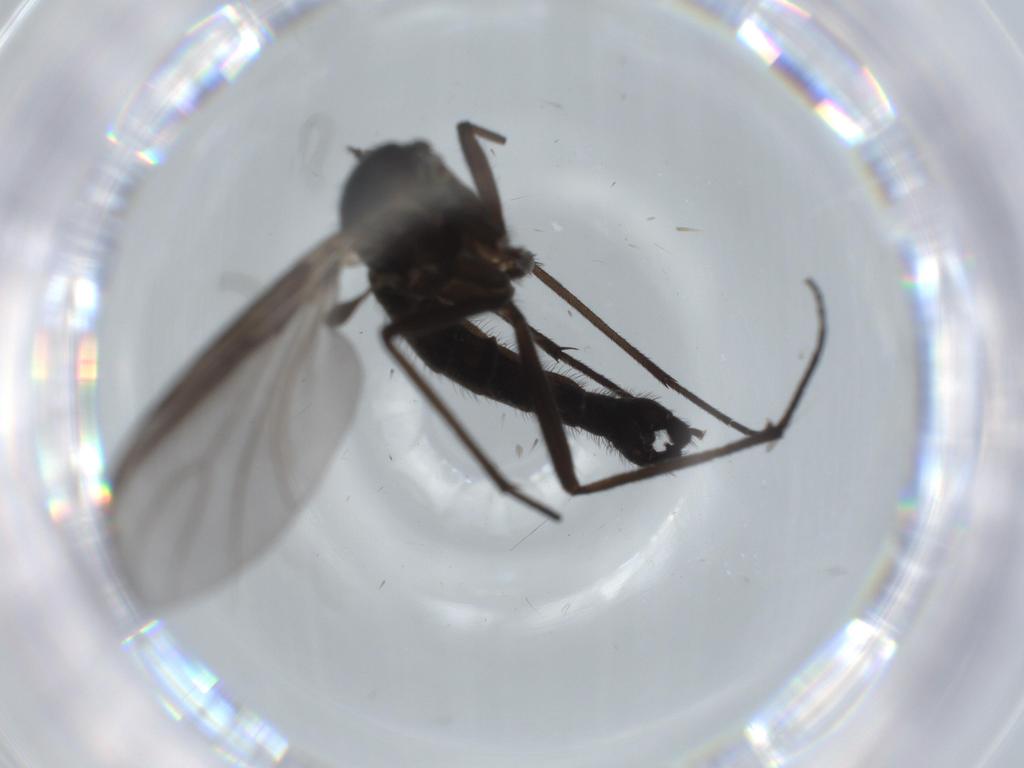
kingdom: Animalia
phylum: Arthropoda
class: Insecta
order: Diptera
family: Sciaridae
